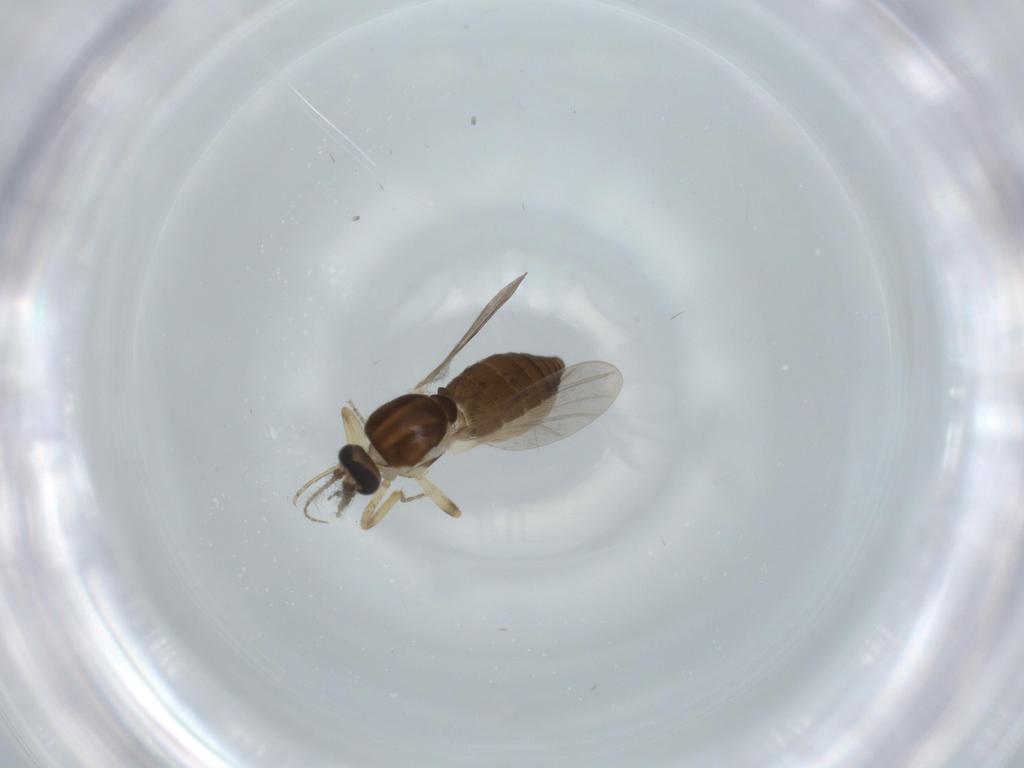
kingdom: Animalia
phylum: Arthropoda
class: Insecta
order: Diptera
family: Ceratopogonidae
